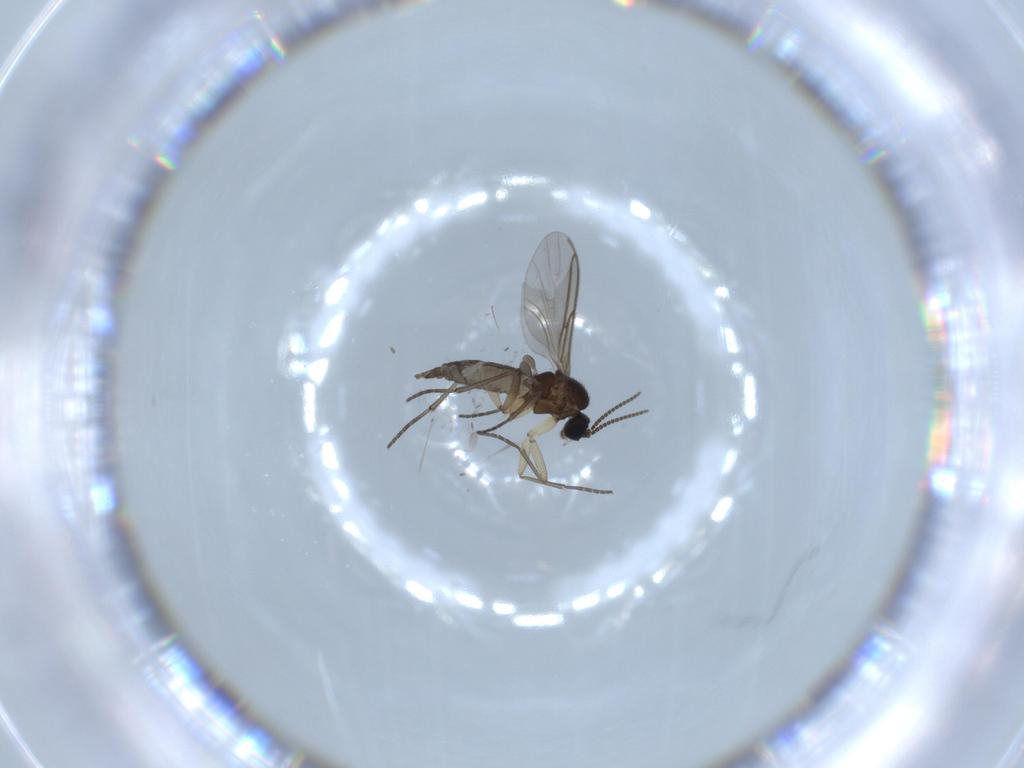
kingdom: Animalia
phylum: Arthropoda
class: Insecta
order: Diptera
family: Sciaridae
